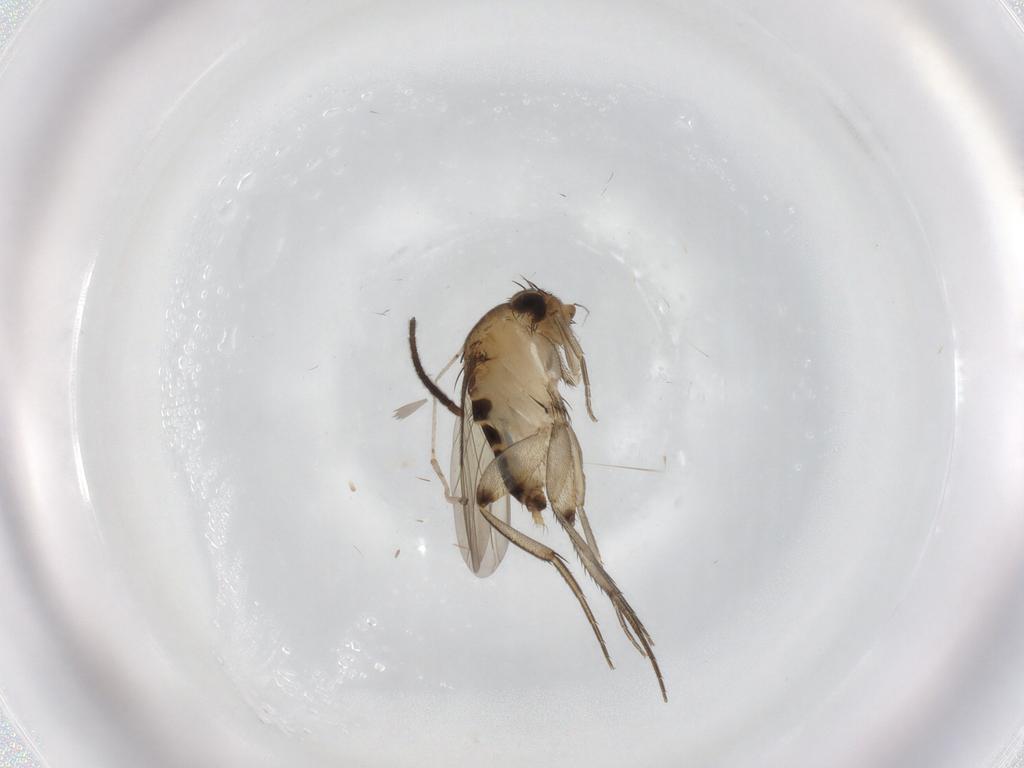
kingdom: Animalia
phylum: Arthropoda
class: Insecta
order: Diptera
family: Phoridae
